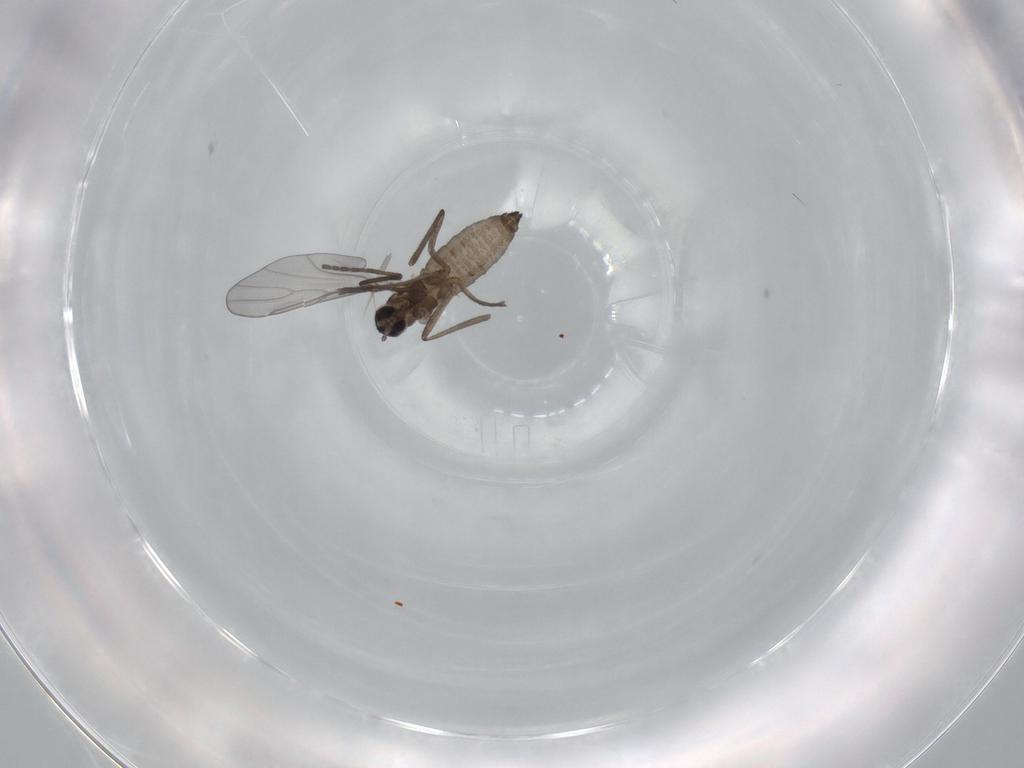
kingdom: Animalia
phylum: Arthropoda
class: Insecta
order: Diptera
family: Cecidomyiidae
